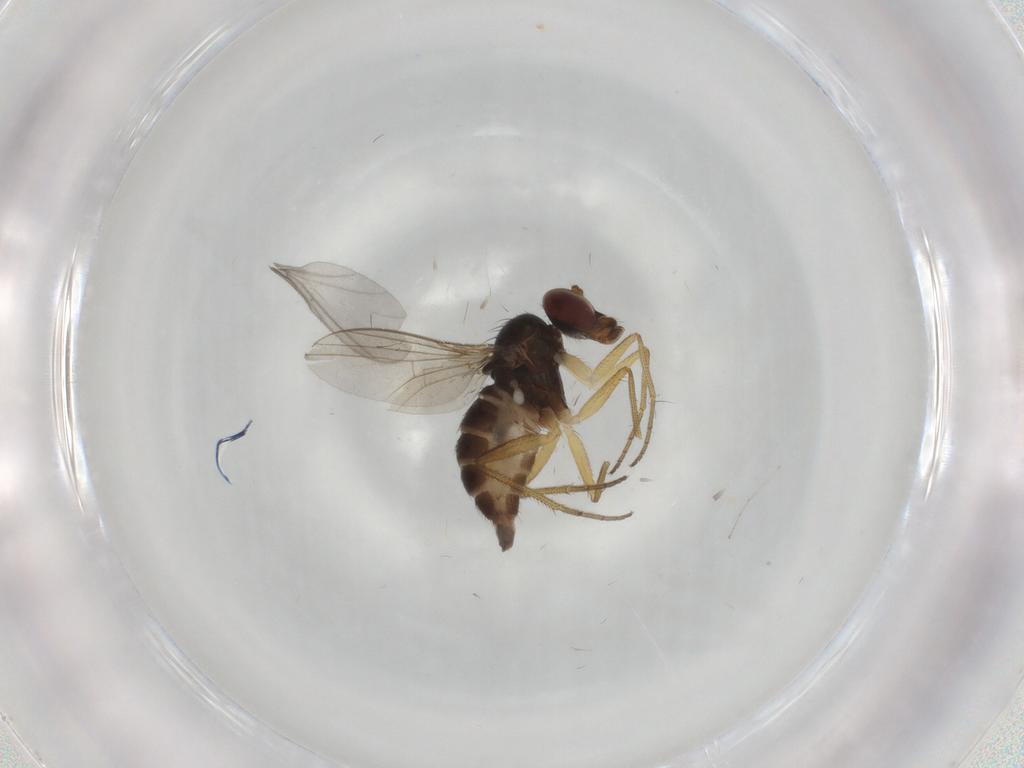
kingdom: Animalia
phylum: Arthropoda
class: Insecta
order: Diptera
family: Dolichopodidae
